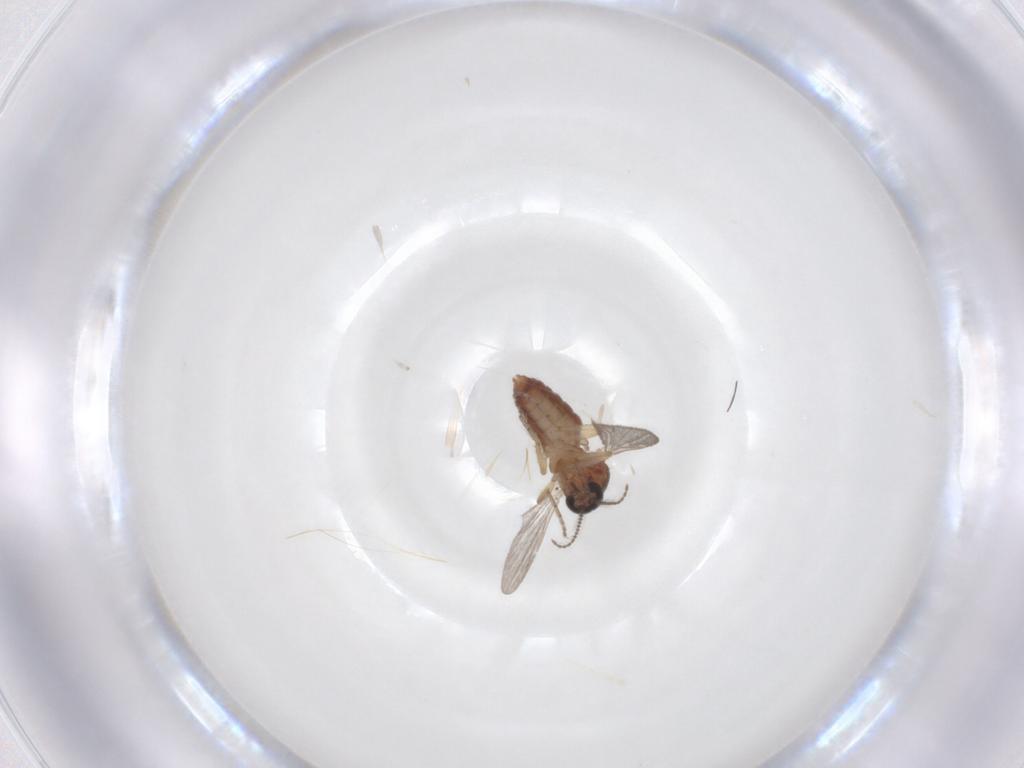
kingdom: Animalia
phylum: Arthropoda
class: Insecta
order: Diptera
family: Ceratopogonidae
